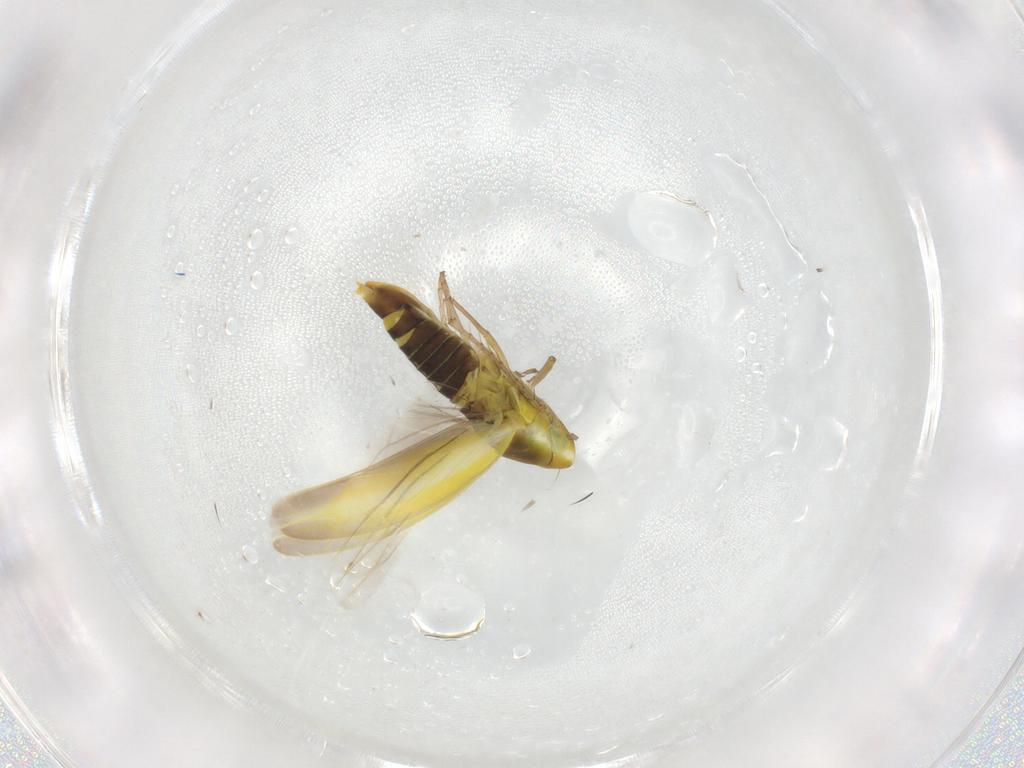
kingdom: Animalia
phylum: Arthropoda
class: Insecta
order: Hemiptera
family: Cicadellidae
